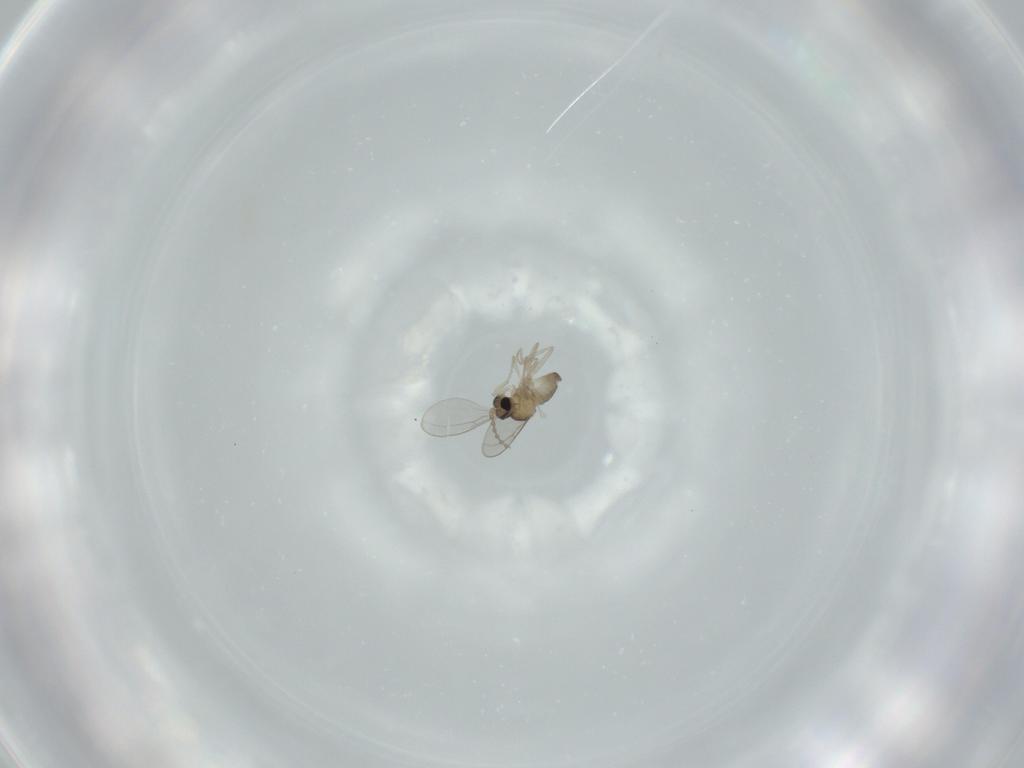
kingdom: Animalia
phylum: Arthropoda
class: Insecta
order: Diptera
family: Cecidomyiidae
